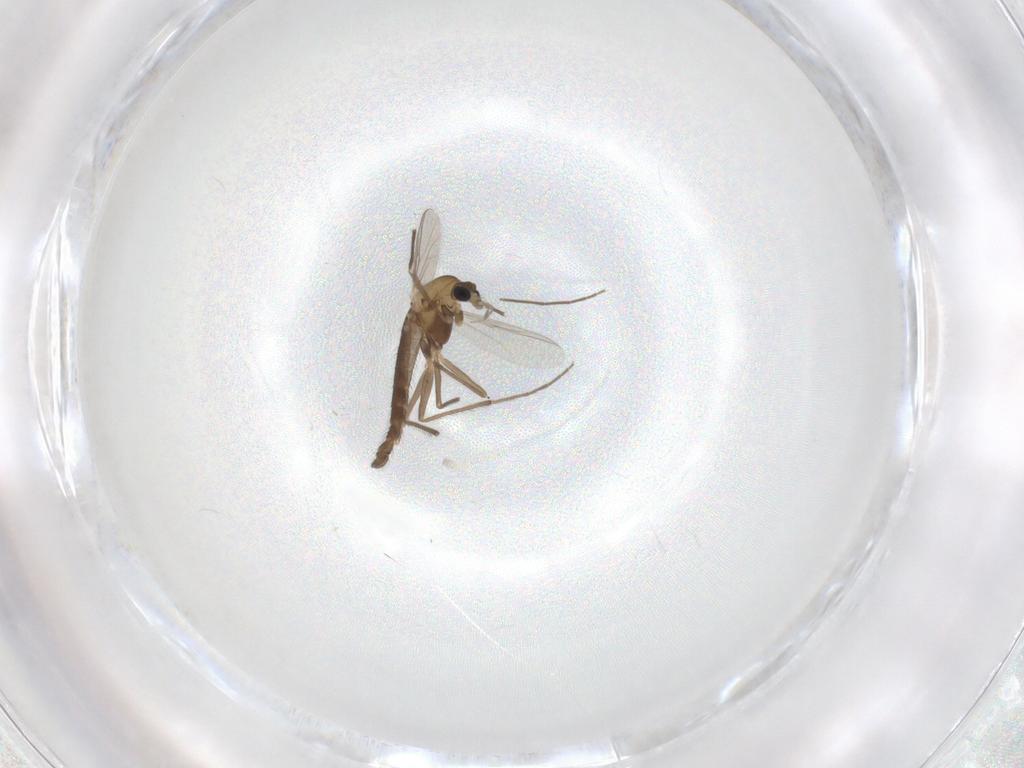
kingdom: Animalia
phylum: Arthropoda
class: Insecta
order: Diptera
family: Chironomidae
